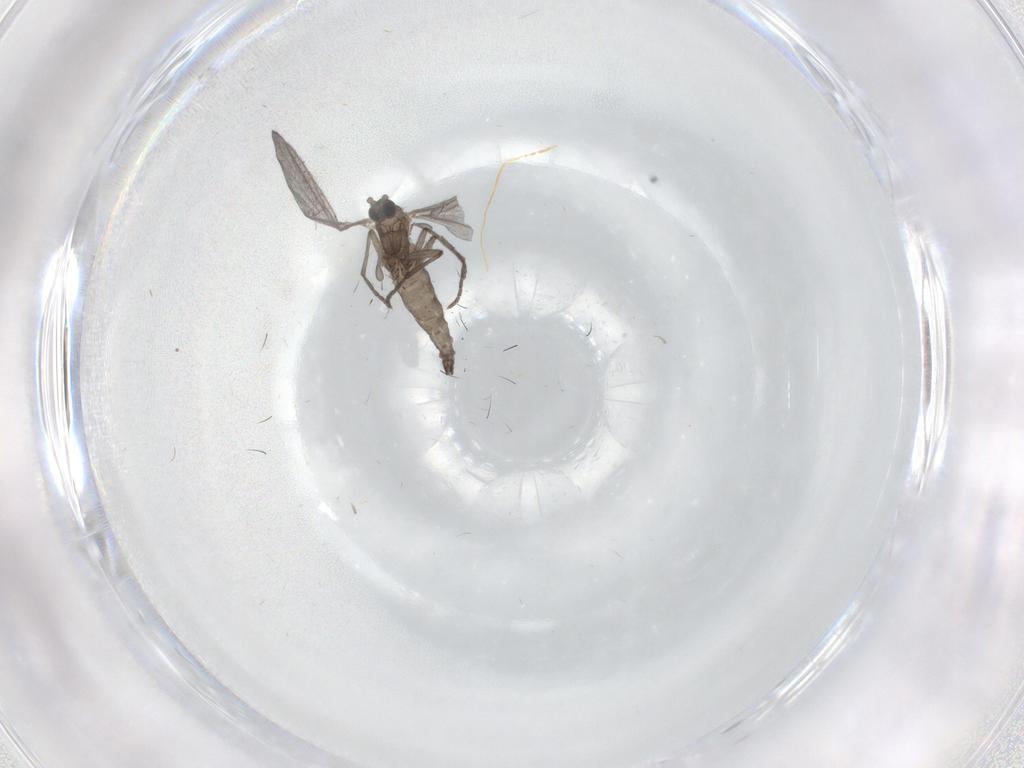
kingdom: Animalia
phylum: Arthropoda
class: Insecta
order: Diptera
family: Sciaridae
